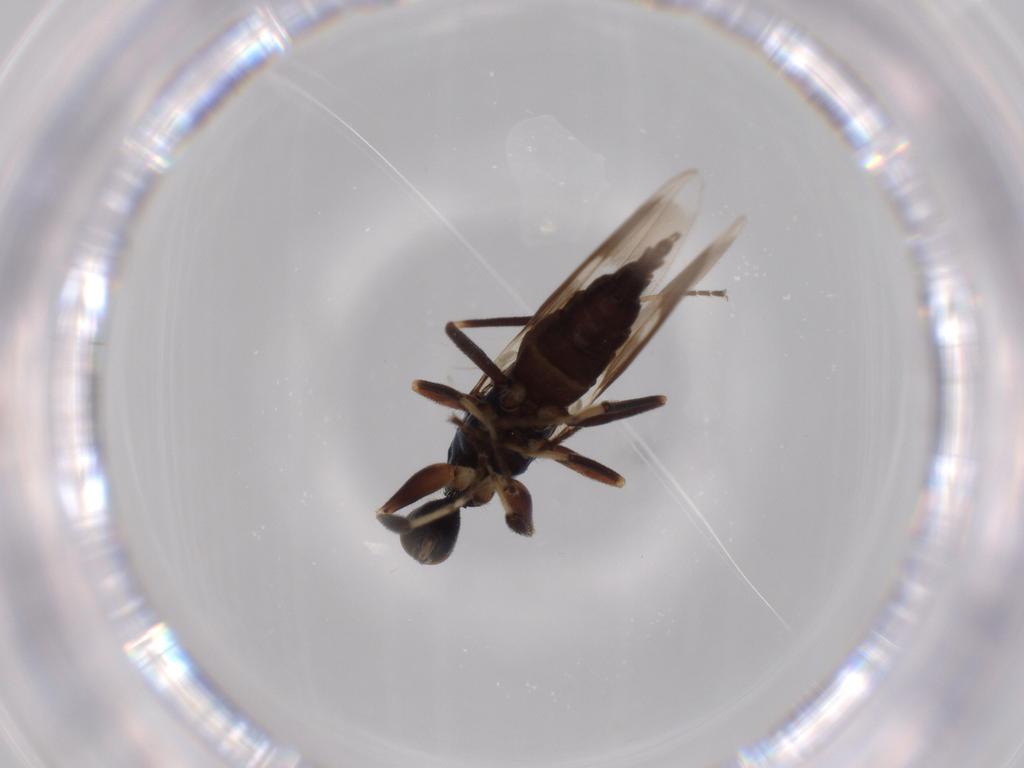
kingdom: Animalia
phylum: Arthropoda
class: Insecta
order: Diptera
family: Hybotidae
